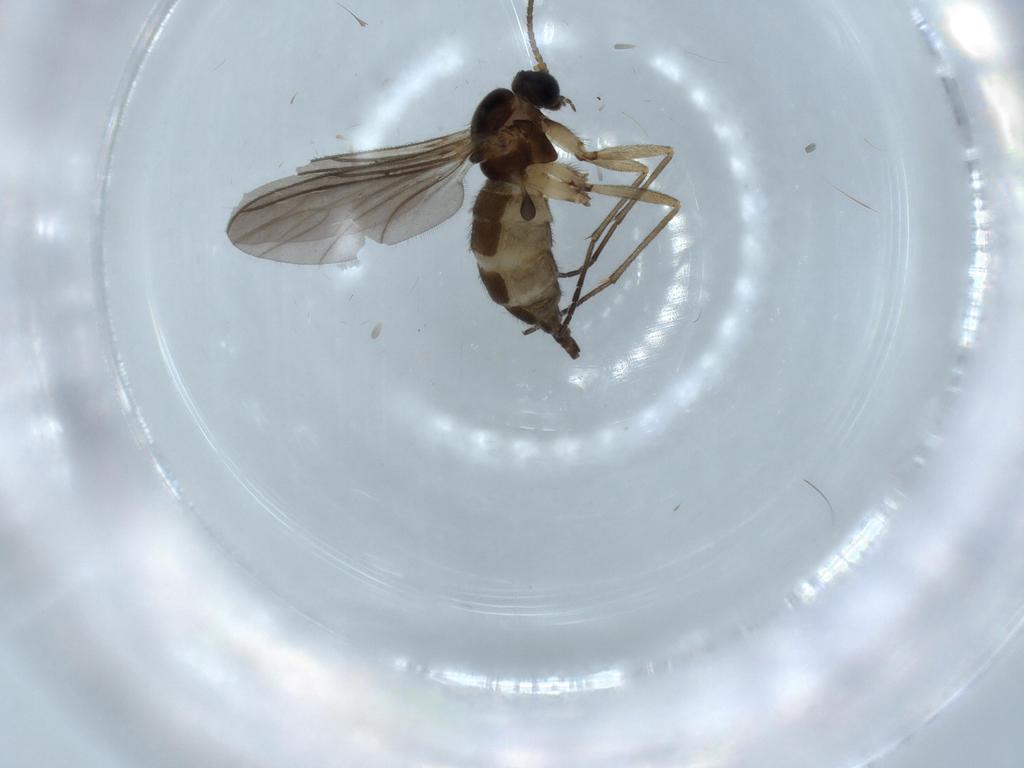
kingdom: Animalia
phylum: Arthropoda
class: Insecta
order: Diptera
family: Sciaridae
